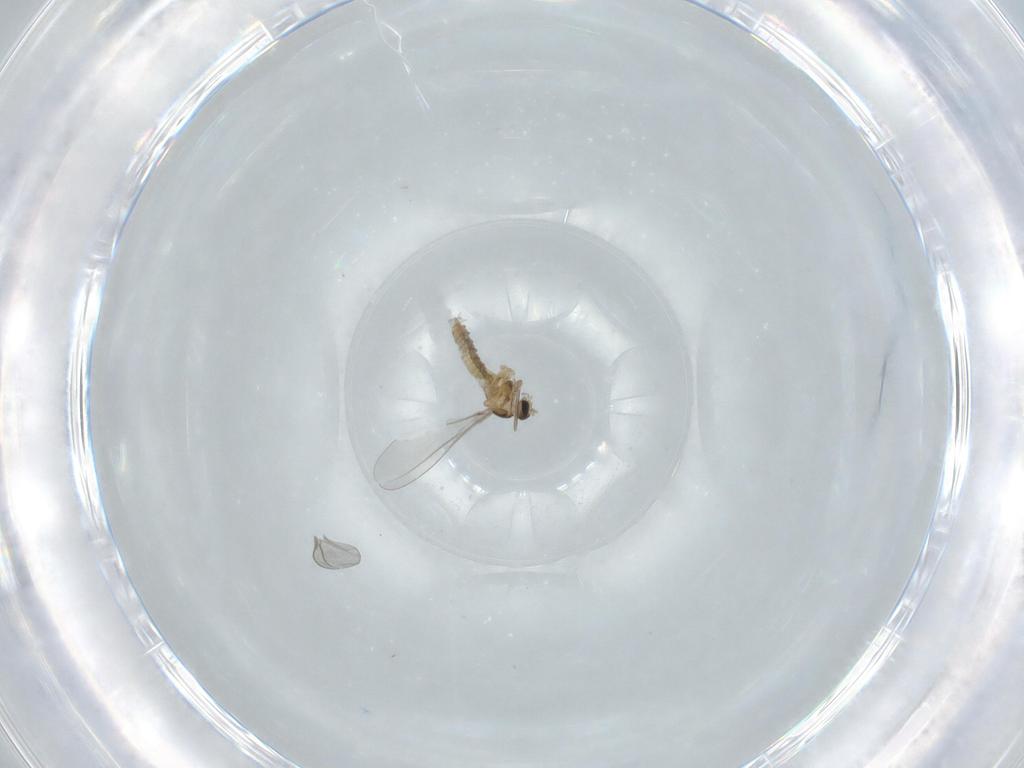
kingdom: Animalia
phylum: Arthropoda
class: Insecta
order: Diptera
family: Cecidomyiidae
